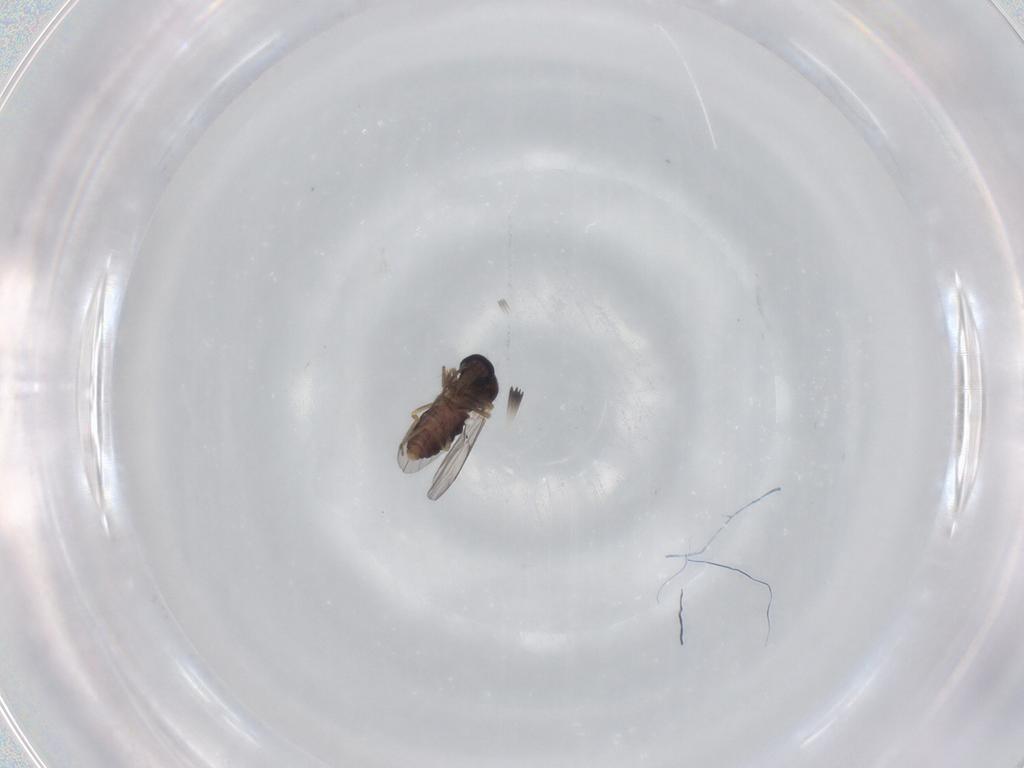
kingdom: Animalia
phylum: Arthropoda
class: Insecta
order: Diptera
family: Ceratopogonidae
